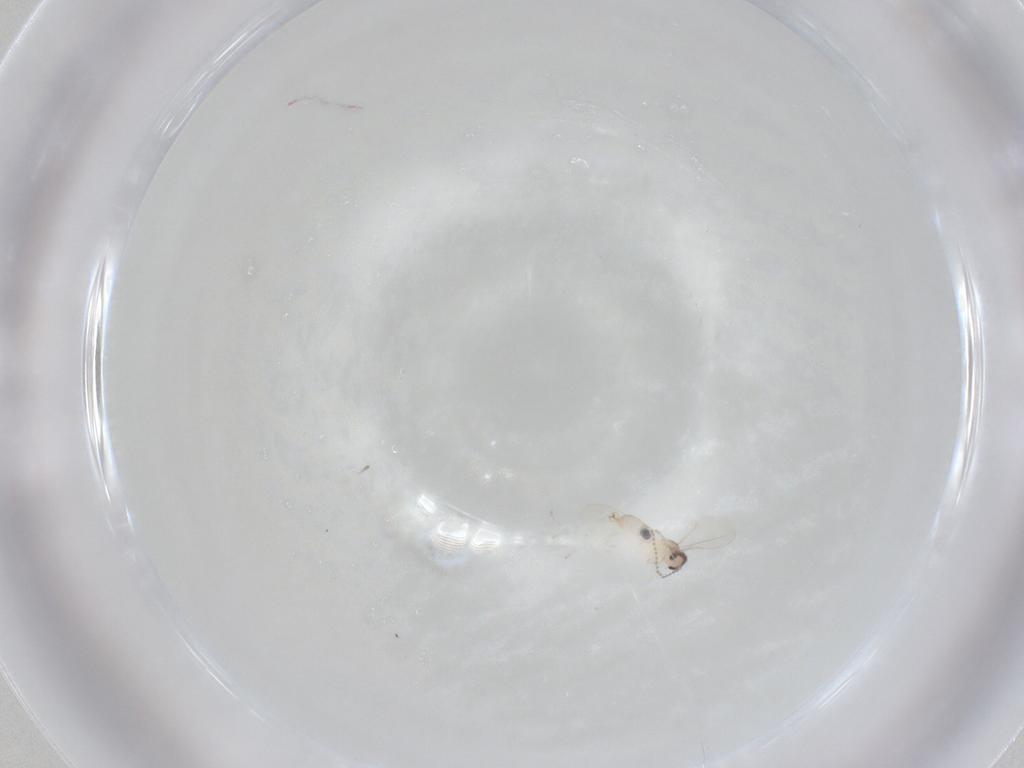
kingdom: Animalia
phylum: Arthropoda
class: Insecta
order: Diptera
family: Cecidomyiidae
